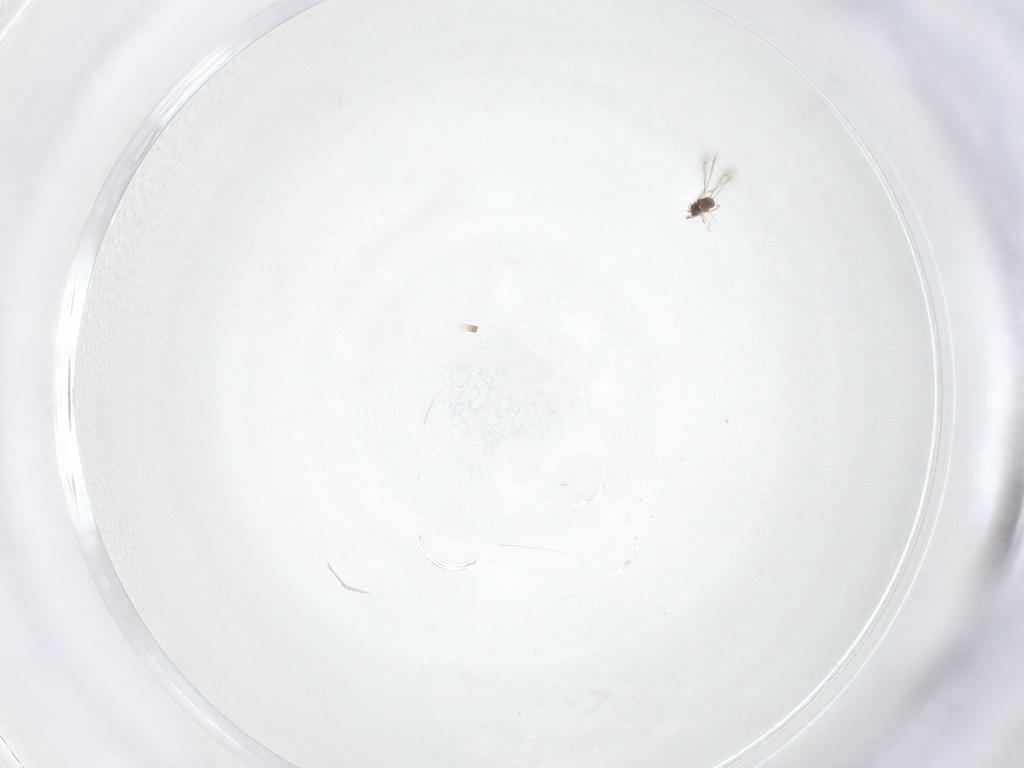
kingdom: Animalia
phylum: Arthropoda
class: Insecta
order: Hymenoptera
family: Mymaridae
